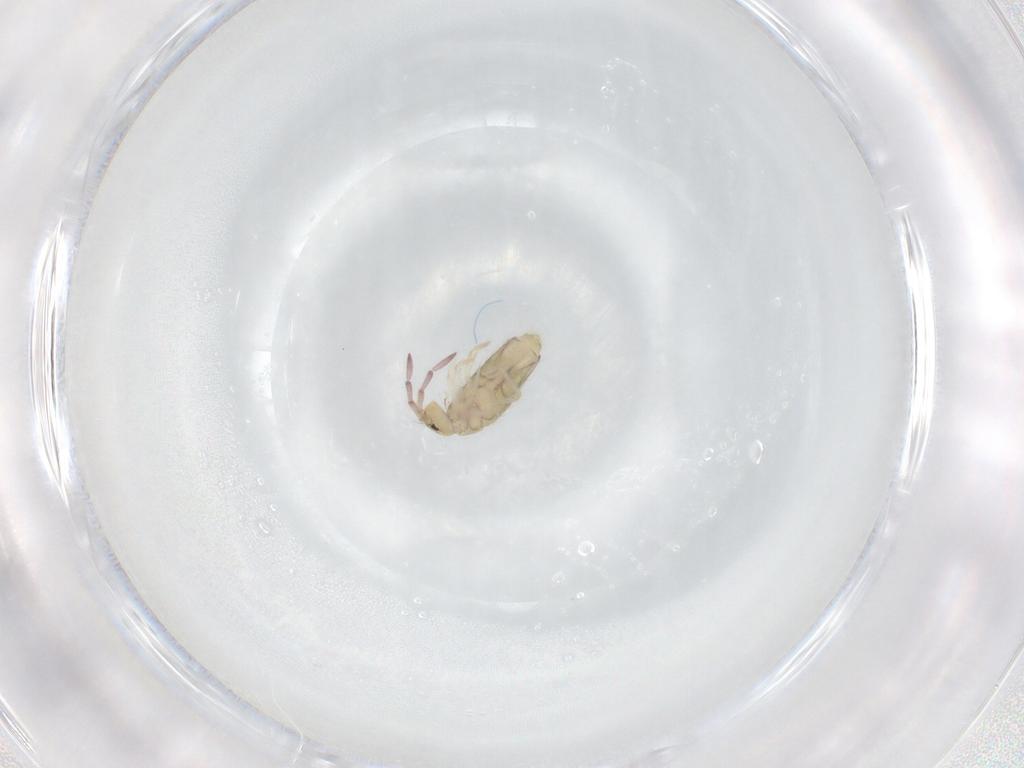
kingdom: Animalia
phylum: Arthropoda
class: Collembola
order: Entomobryomorpha
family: Entomobryidae
